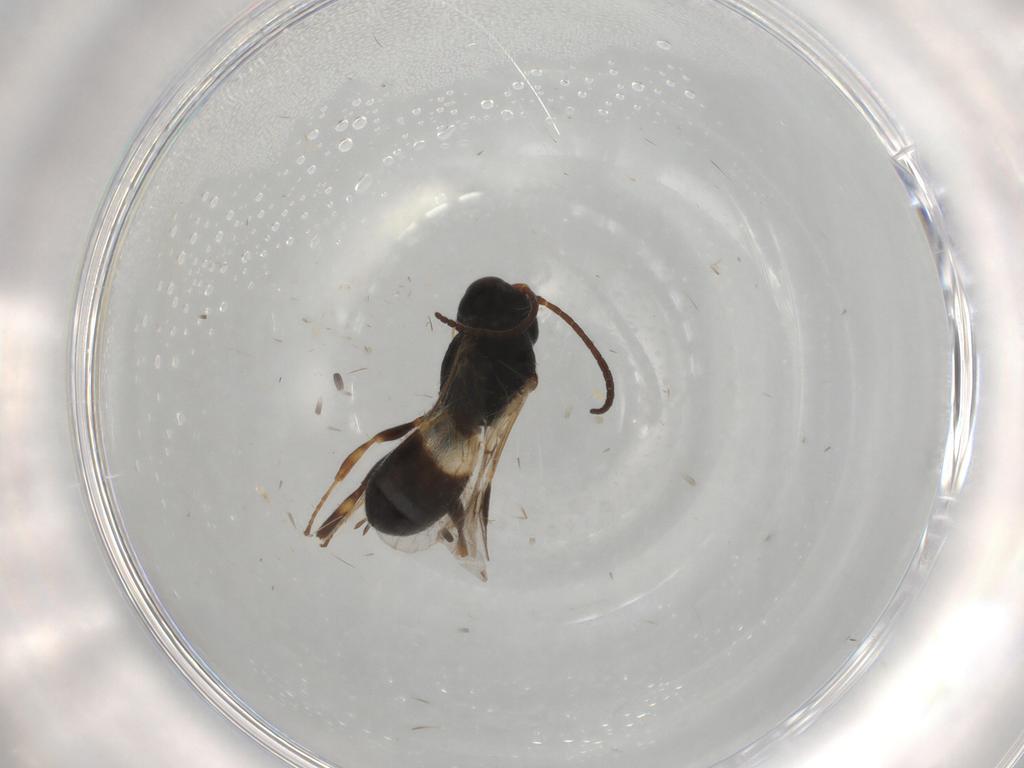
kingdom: Animalia
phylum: Arthropoda
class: Insecta
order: Hymenoptera
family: Braconidae
